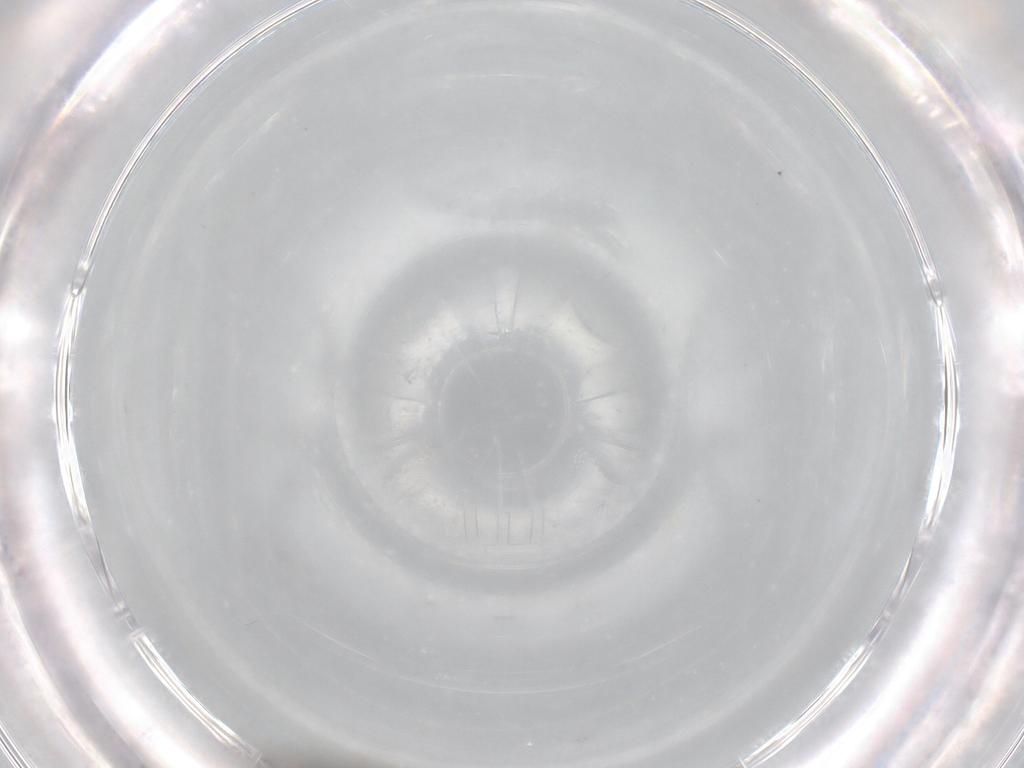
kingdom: Animalia
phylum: Arthropoda
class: Insecta
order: Diptera
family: Sciaridae
